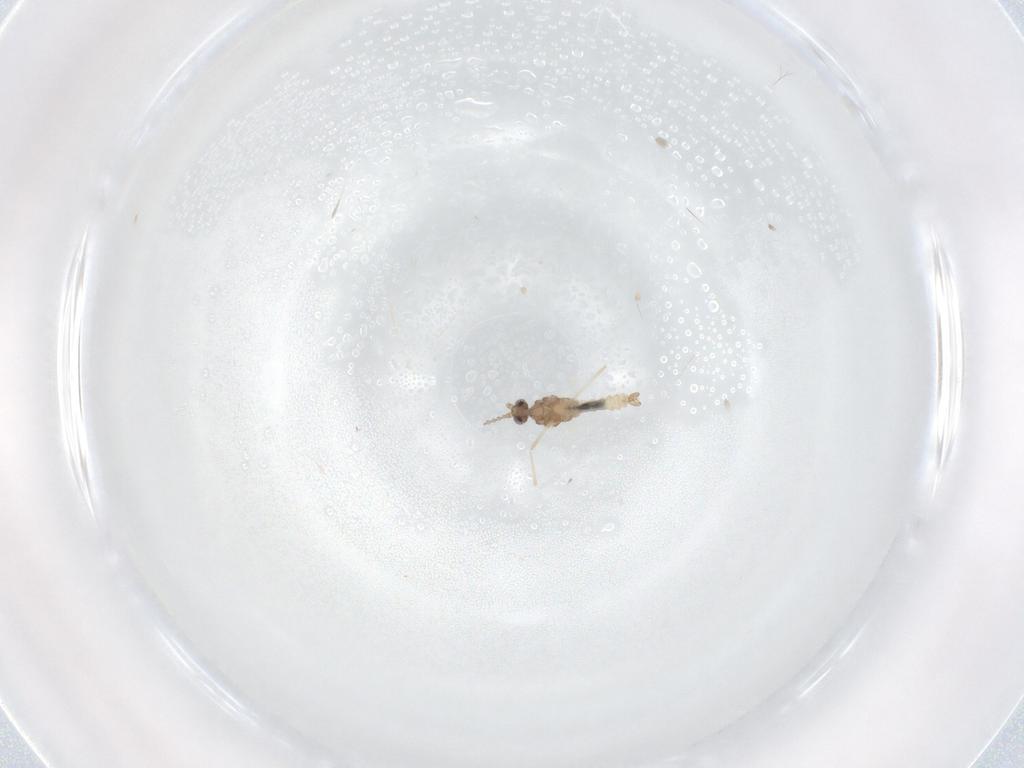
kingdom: Animalia
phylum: Arthropoda
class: Insecta
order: Diptera
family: Cecidomyiidae
